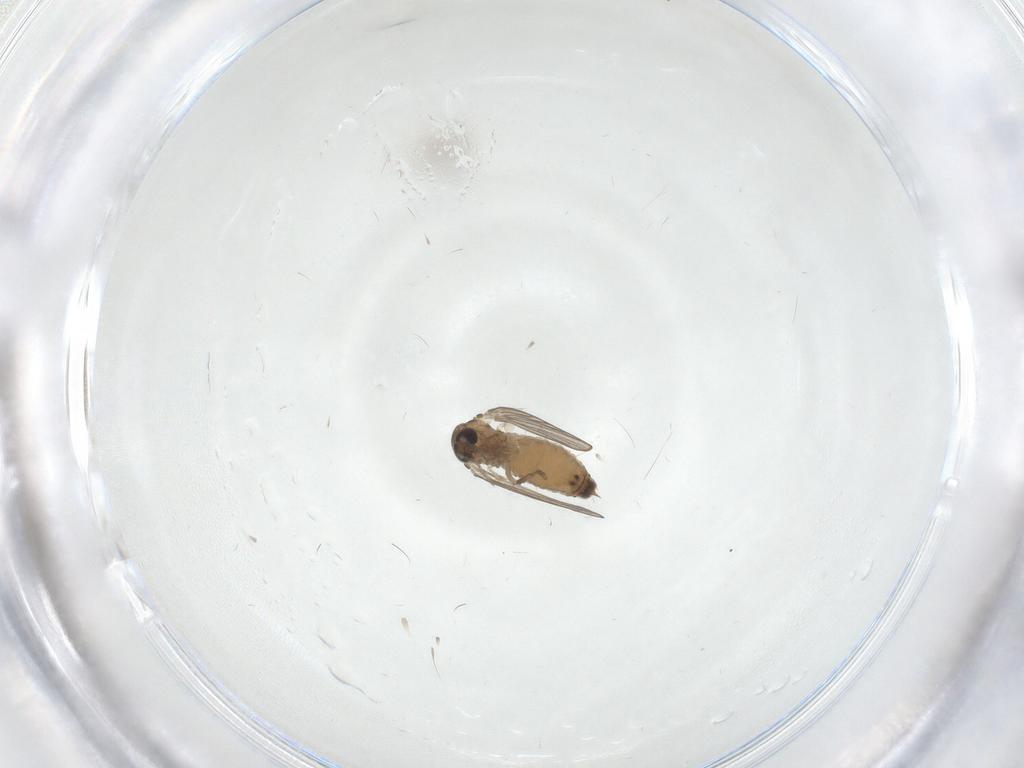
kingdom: Animalia
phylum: Arthropoda
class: Insecta
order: Diptera
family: Psychodidae
